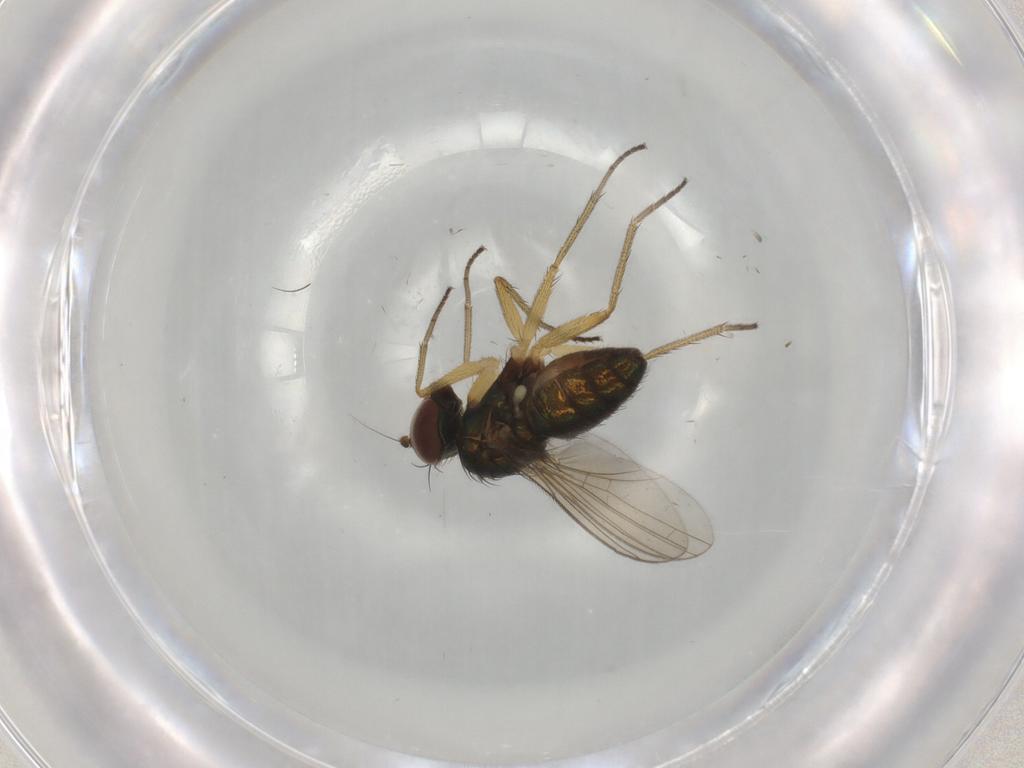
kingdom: Animalia
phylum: Arthropoda
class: Insecta
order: Diptera
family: Dolichopodidae
